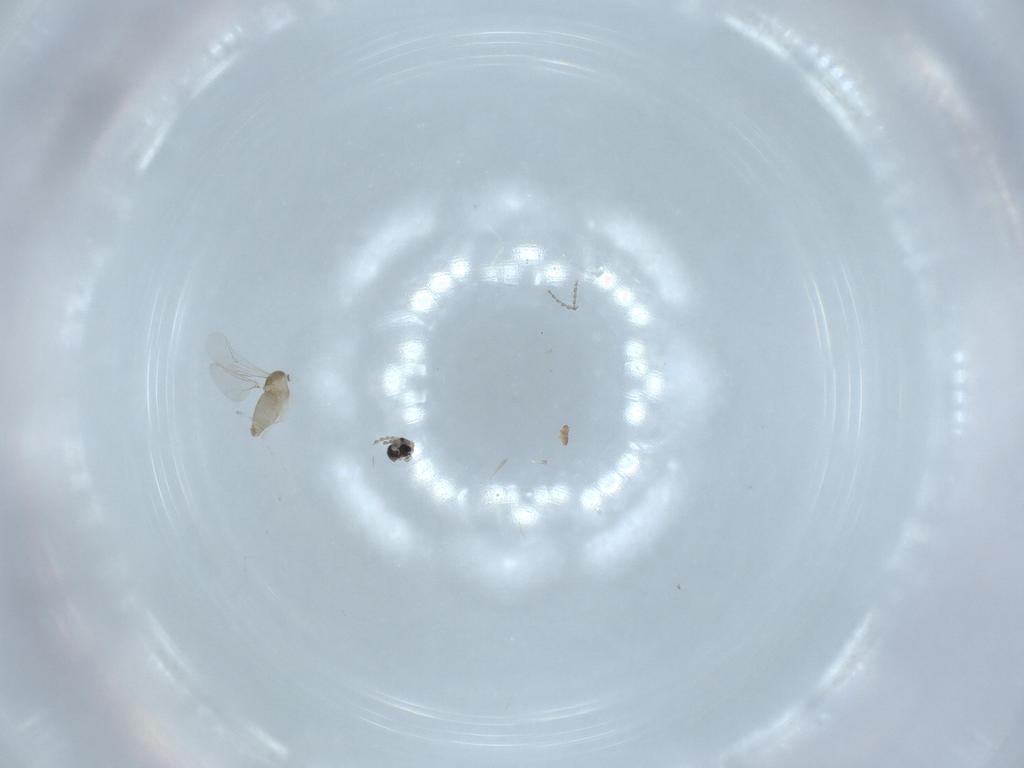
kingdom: Animalia
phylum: Arthropoda
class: Insecta
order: Diptera
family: Cecidomyiidae
